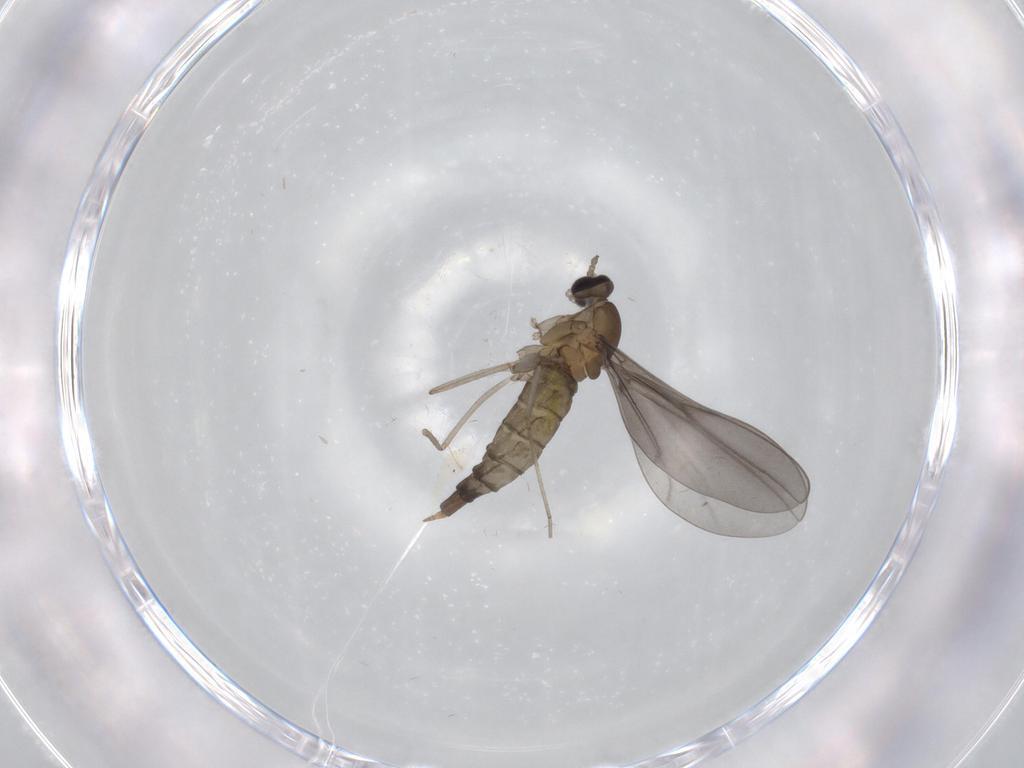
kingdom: Animalia
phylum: Arthropoda
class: Insecta
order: Diptera
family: Cecidomyiidae
